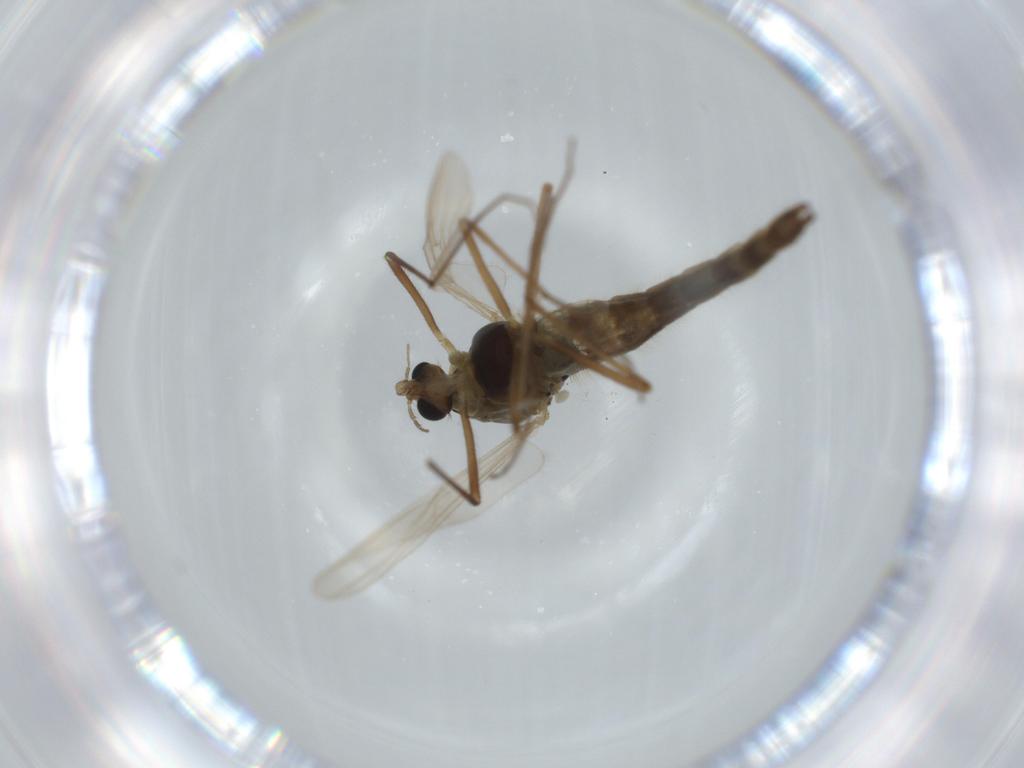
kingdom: Animalia
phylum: Arthropoda
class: Insecta
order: Diptera
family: Muscidae
